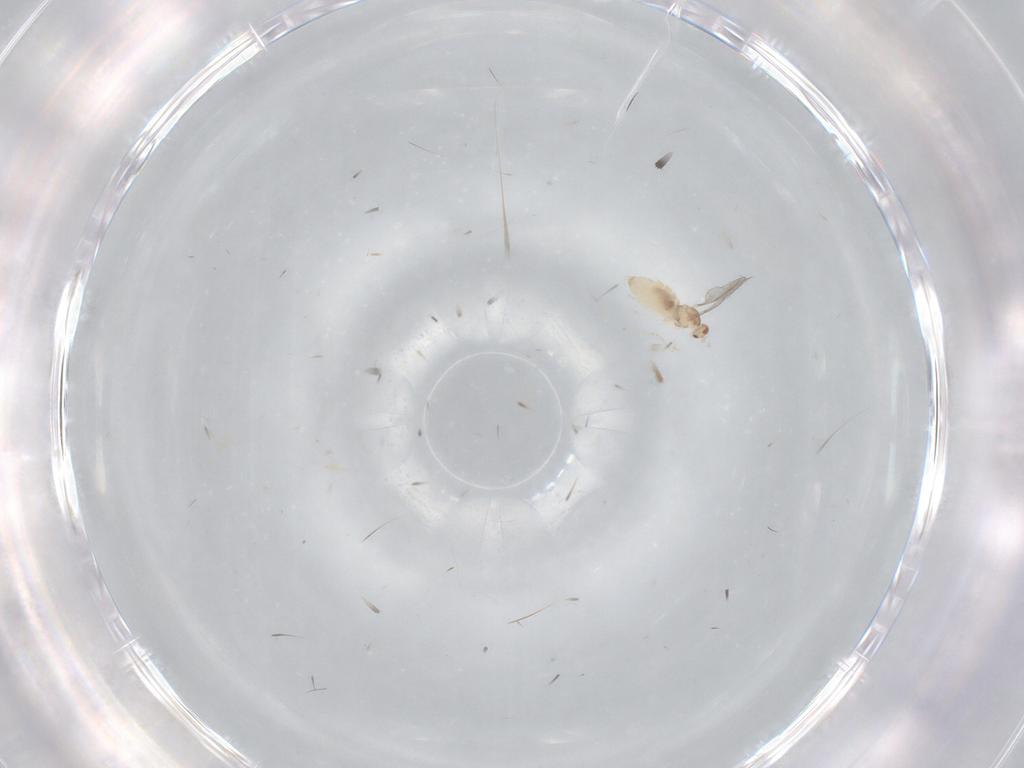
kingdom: Animalia
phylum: Arthropoda
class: Insecta
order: Diptera
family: Cecidomyiidae
